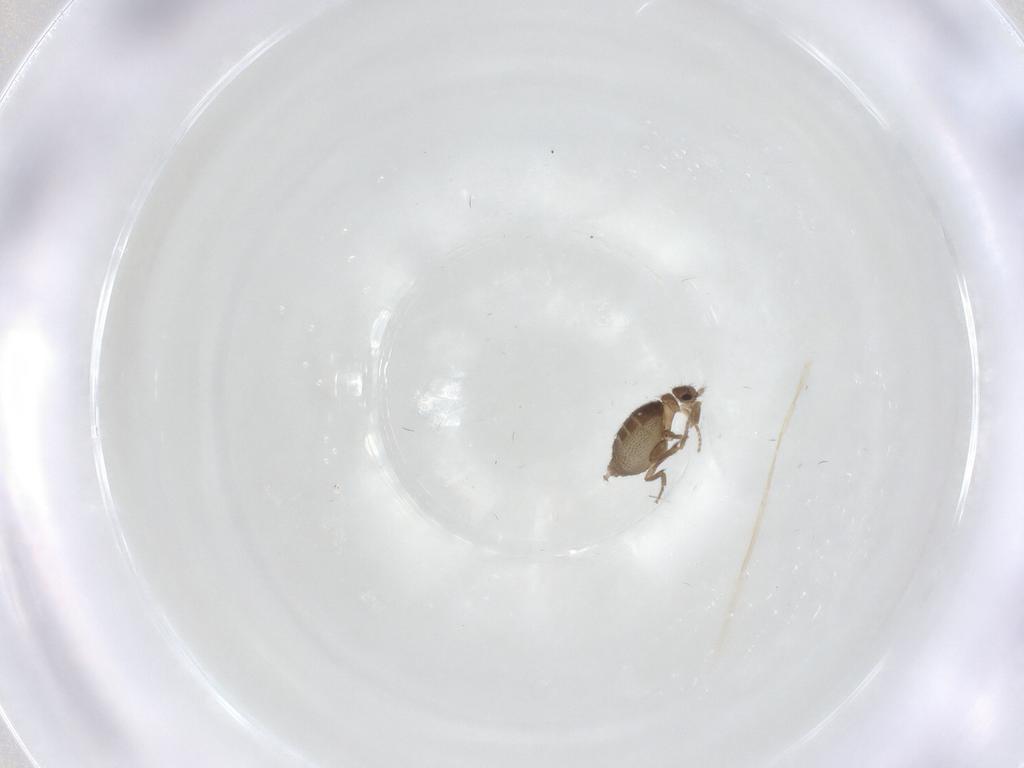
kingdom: Animalia
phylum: Arthropoda
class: Insecta
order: Diptera
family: Phoridae
